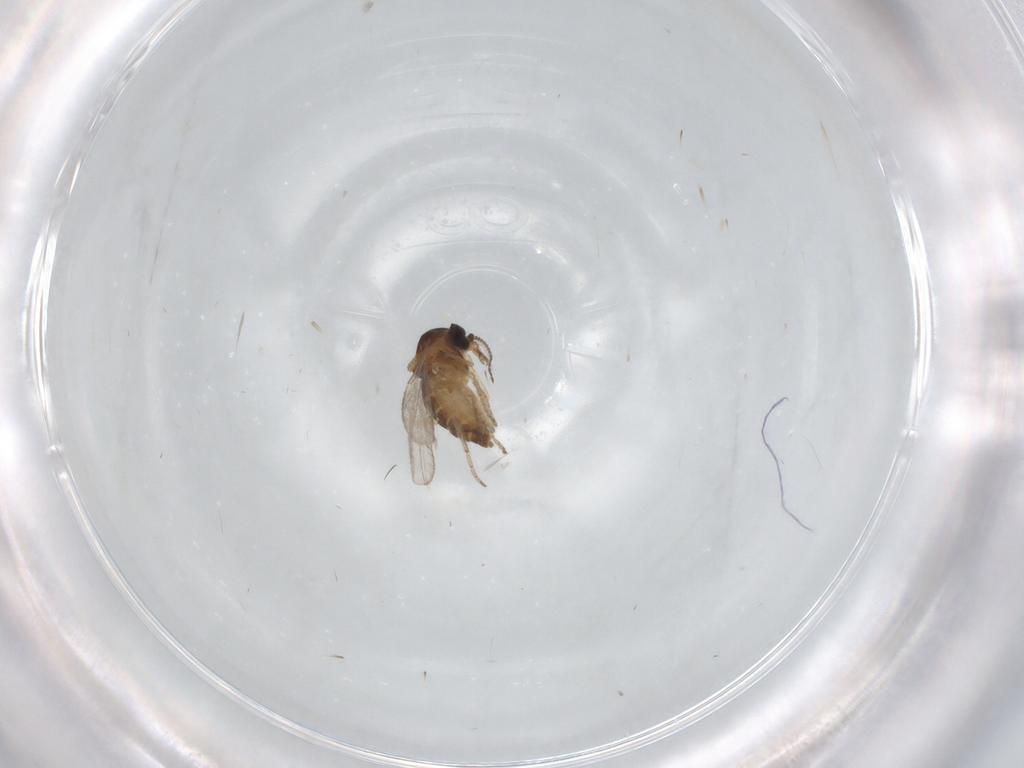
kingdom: Animalia
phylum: Arthropoda
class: Insecta
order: Diptera
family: Ceratopogonidae
